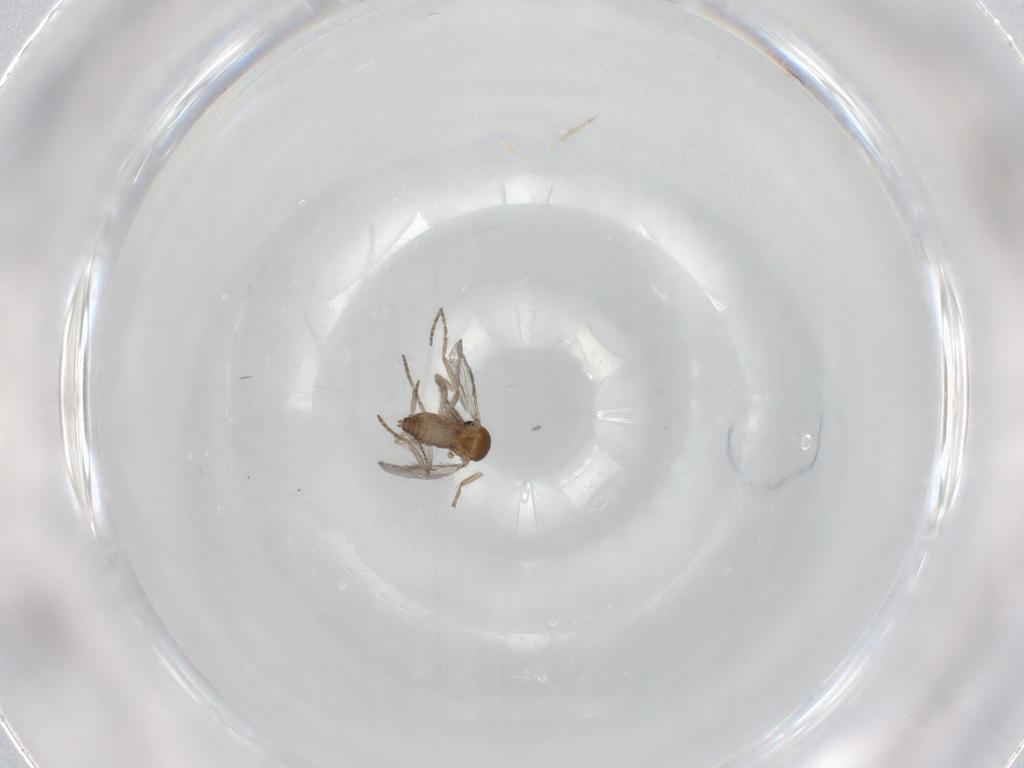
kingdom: Animalia
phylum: Arthropoda
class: Insecta
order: Diptera
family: Chironomidae
